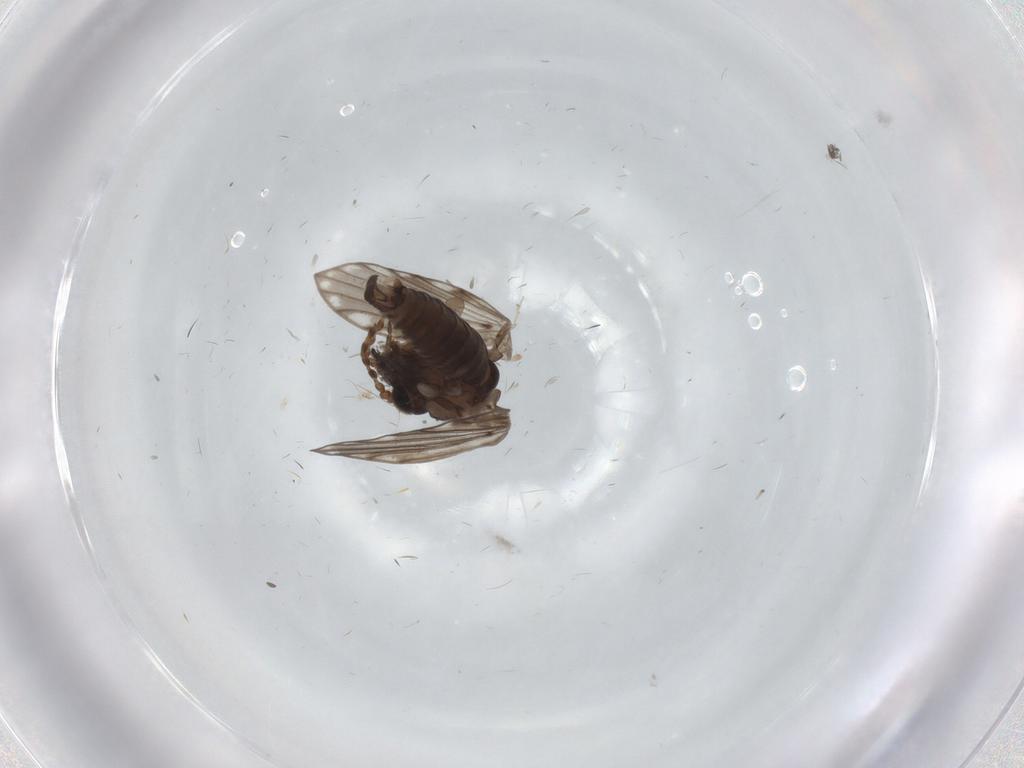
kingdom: Animalia
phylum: Arthropoda
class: Insecta
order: Diptera
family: Psychodidae
